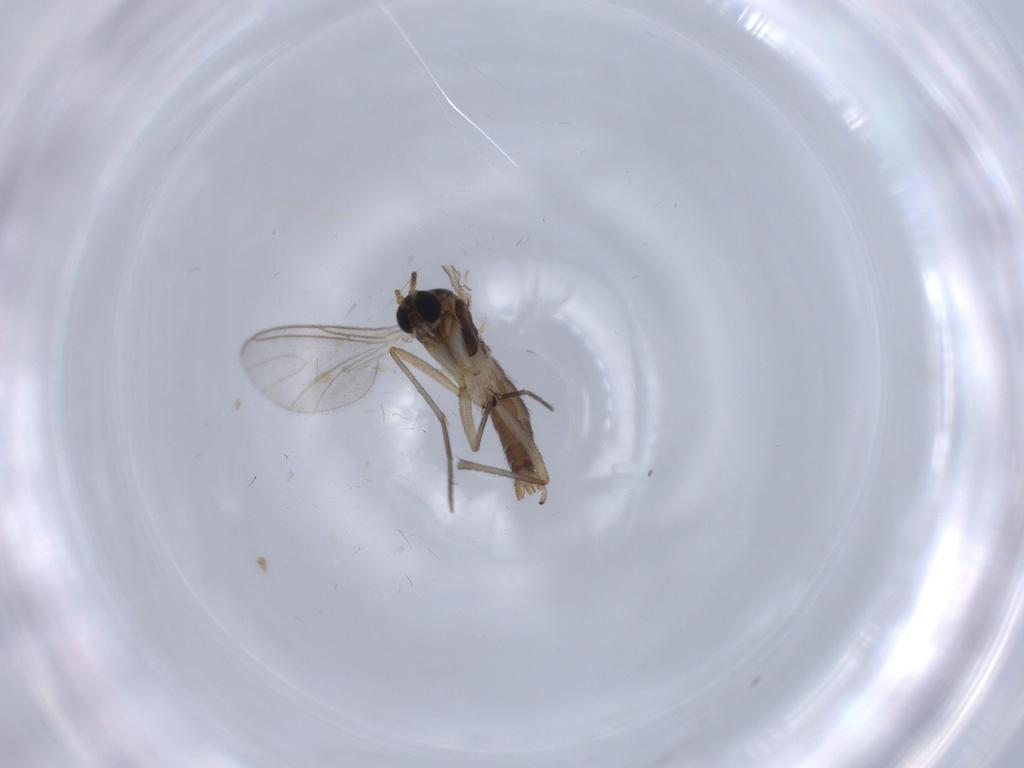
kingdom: Animalia
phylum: Arthropoda
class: Insecta
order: Diptera
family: Sciaridae
